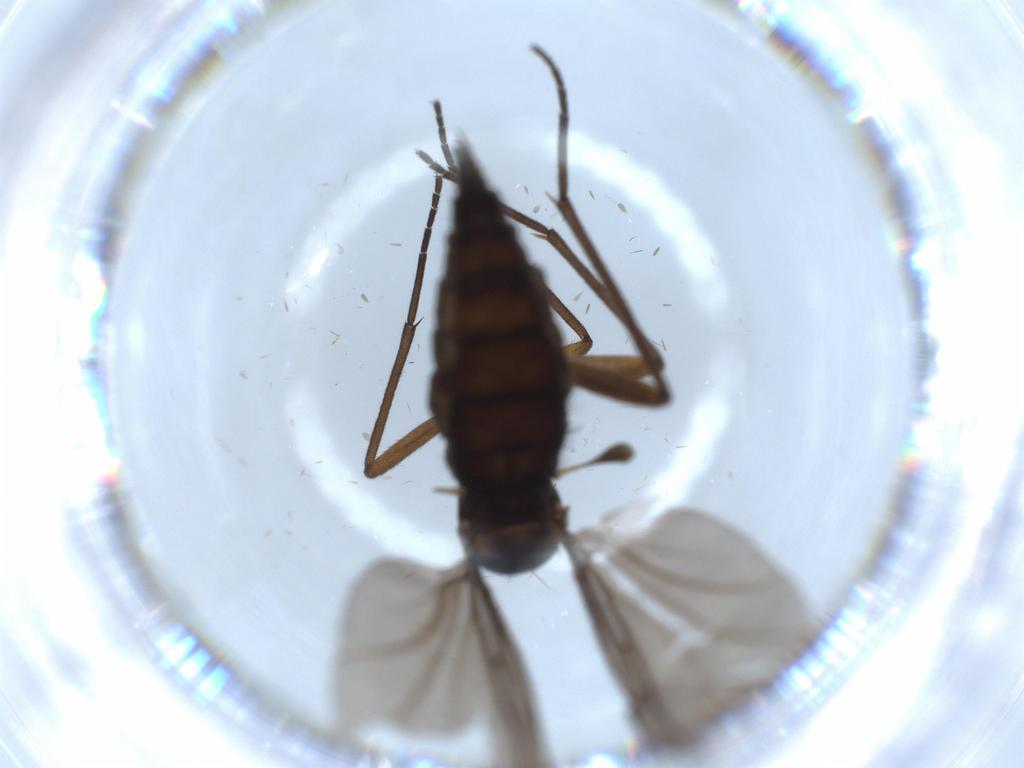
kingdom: Animalia
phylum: Arthropoda
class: Insecta
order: Diptera
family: Sciaridae
